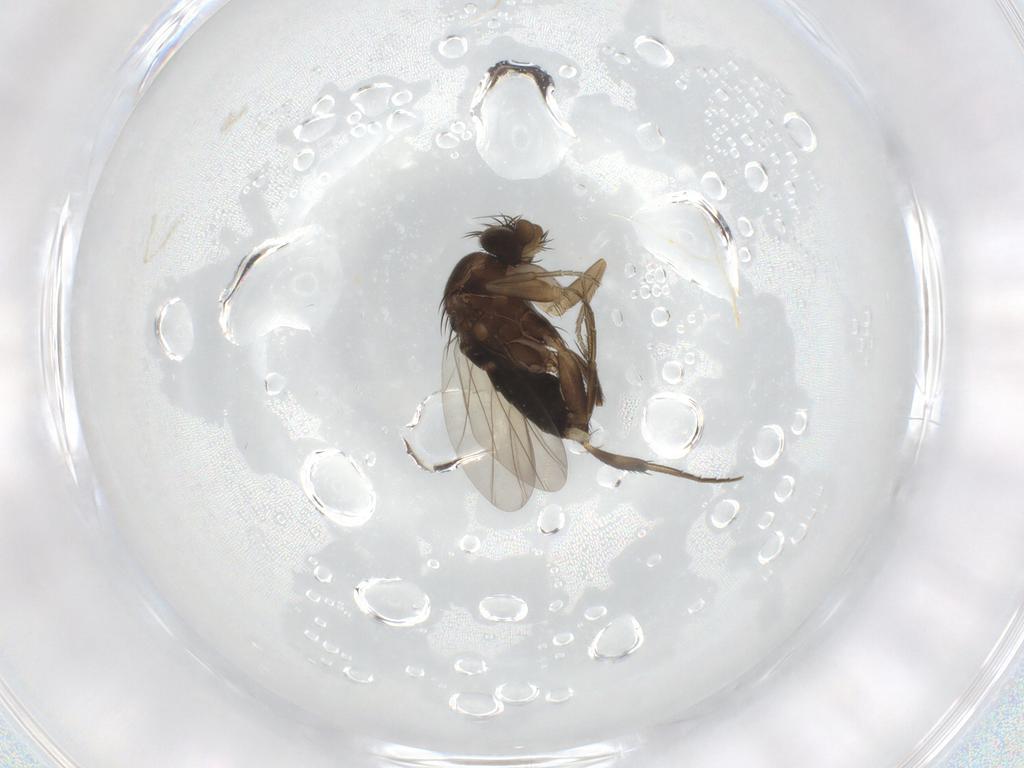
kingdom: Animalia
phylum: Arthropoda
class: Insecta
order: Diptera
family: Phoridae
